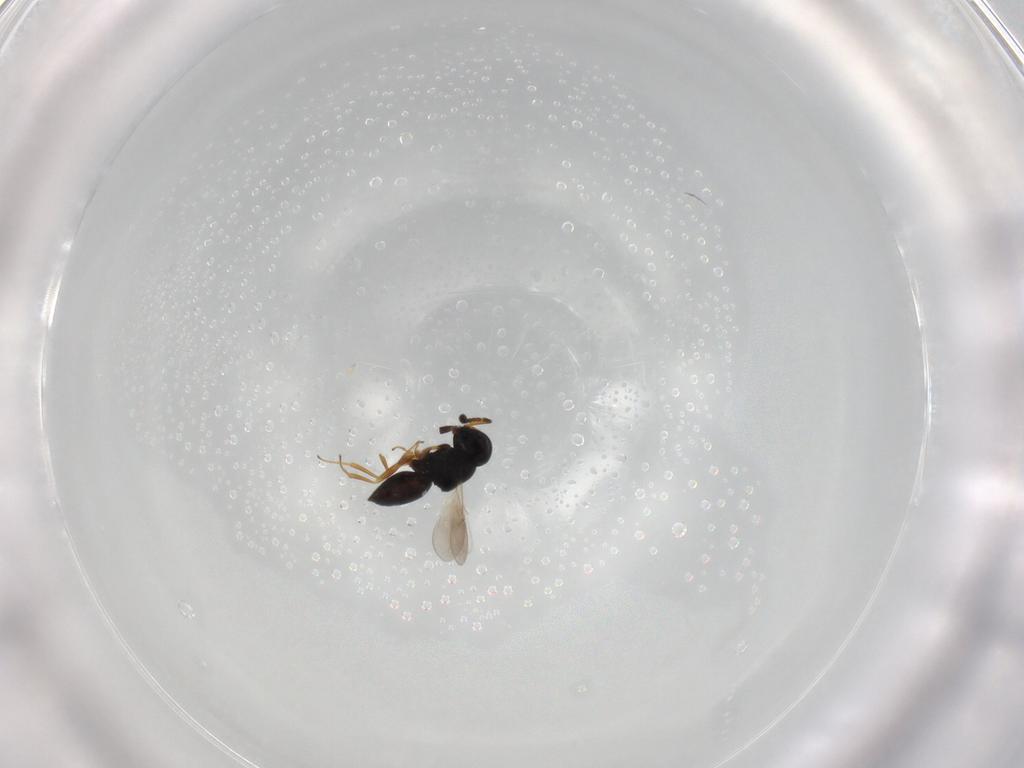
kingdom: Animalia
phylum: Arthropoda
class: Insecta
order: Hymenoptera
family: Scelionidae
